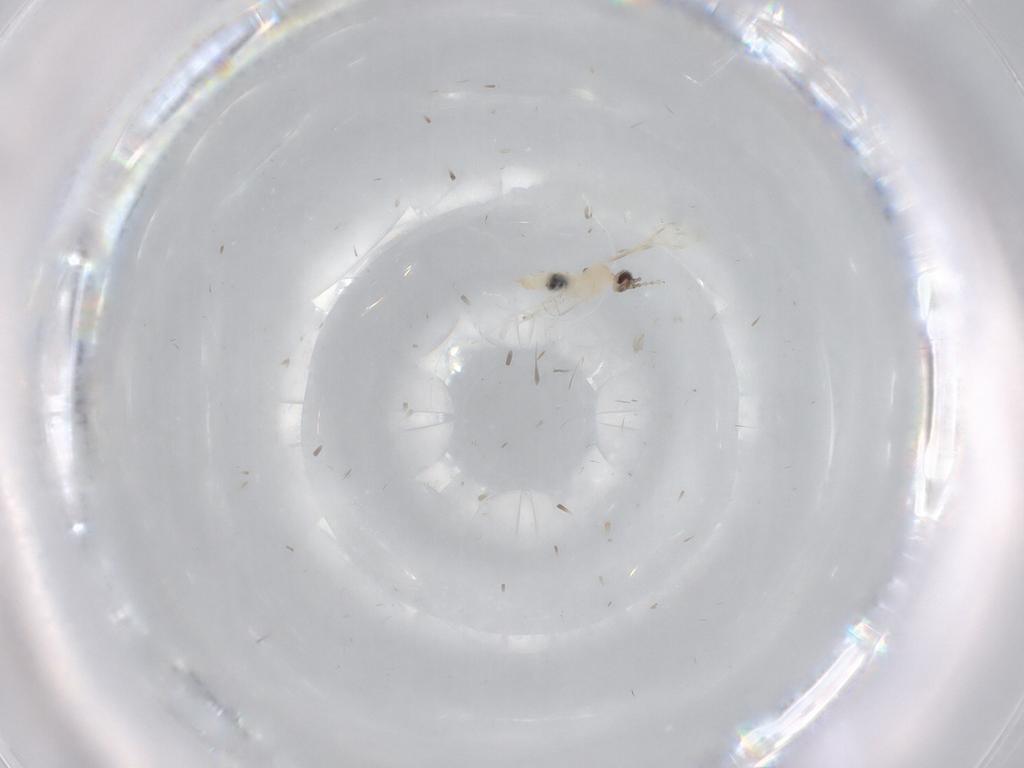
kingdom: Animalia
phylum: Arthropoda
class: Insecta
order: Diptera
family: Cecidomyiidae
